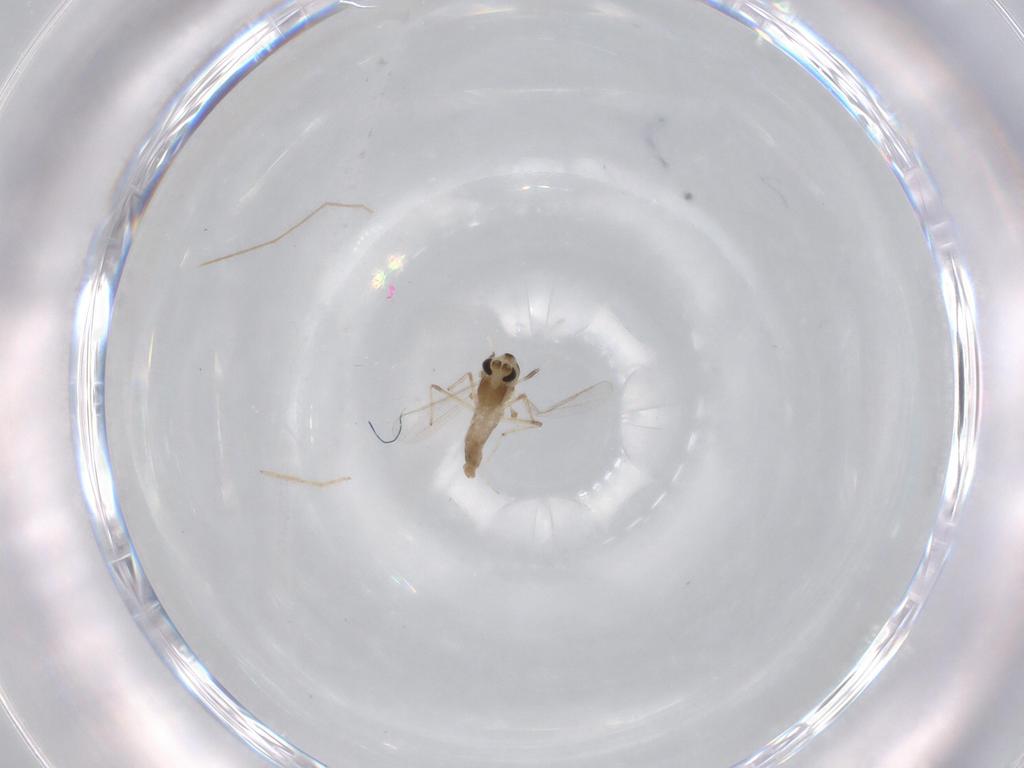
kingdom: Animalia
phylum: Arthropoda
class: Insecta
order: Diptera
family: Chironomidae
